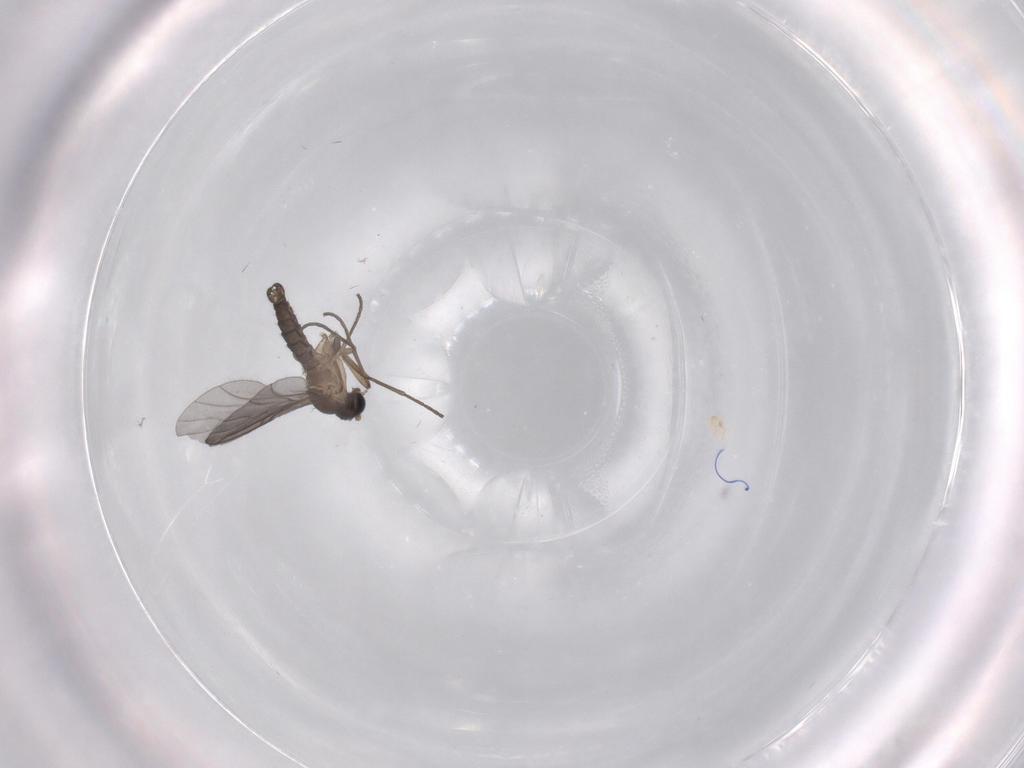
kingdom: Animalia
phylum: Arthropoda
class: Insecta
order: Diptera
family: Sciaridae
